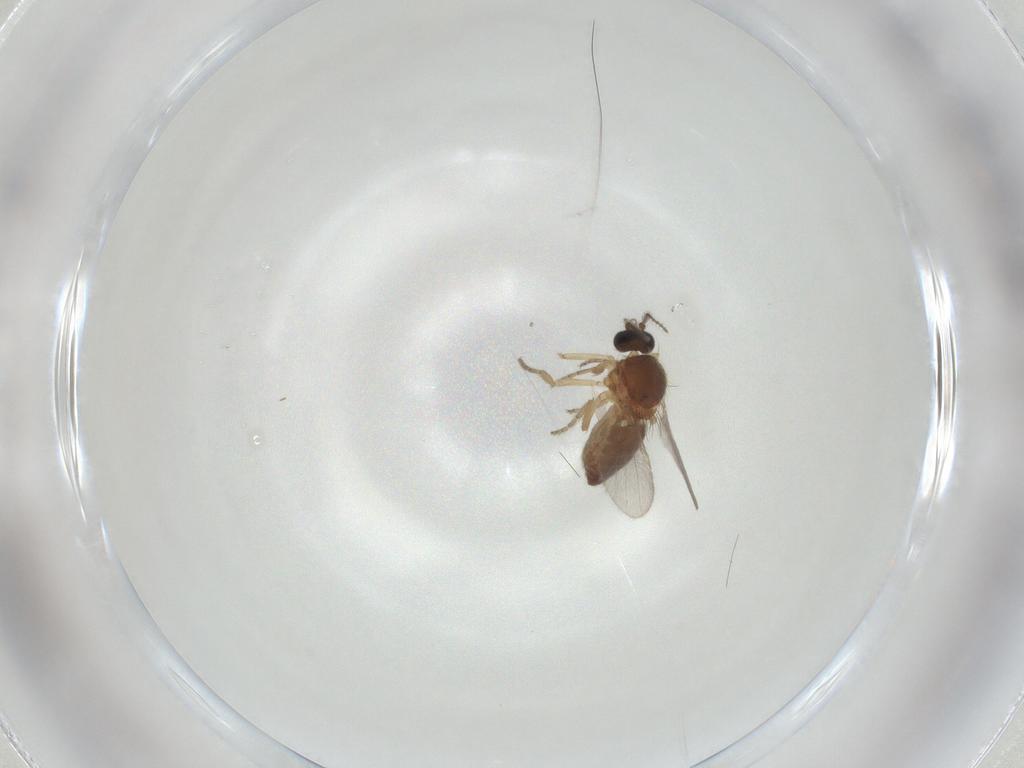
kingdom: Animalia
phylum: Arthropoda
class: Insecta
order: Diptera
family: Ceratopogonidae
